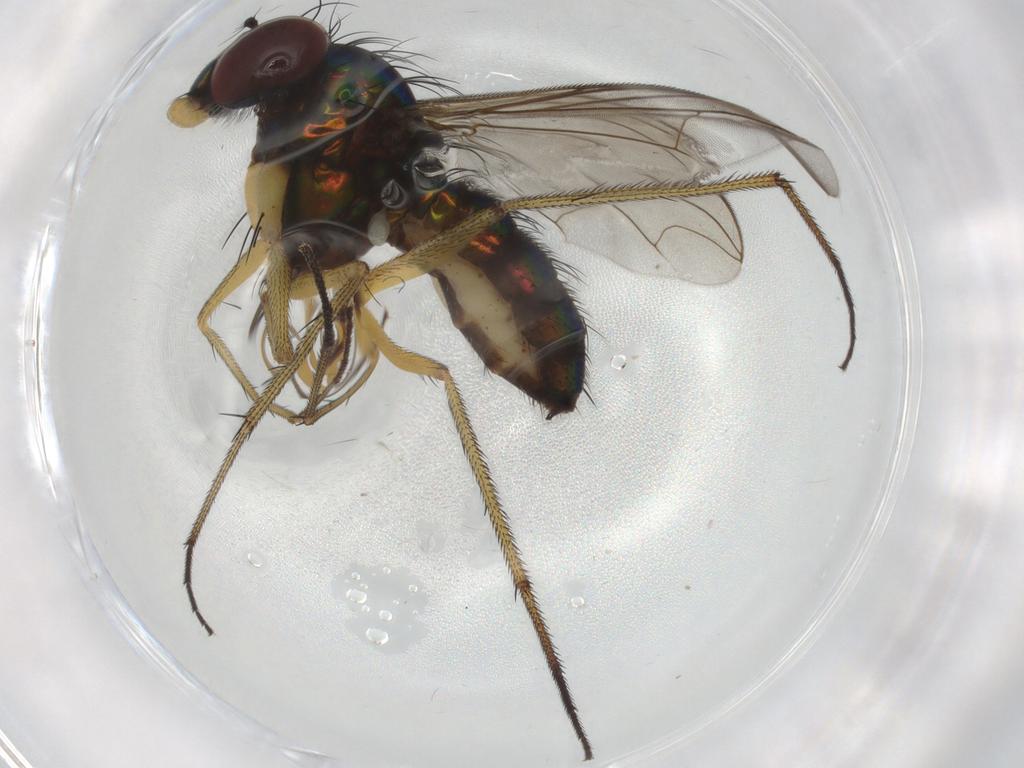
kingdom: Animalia
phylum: Arthropoda
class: Insecta
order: Diptera
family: Dolichopodidae
